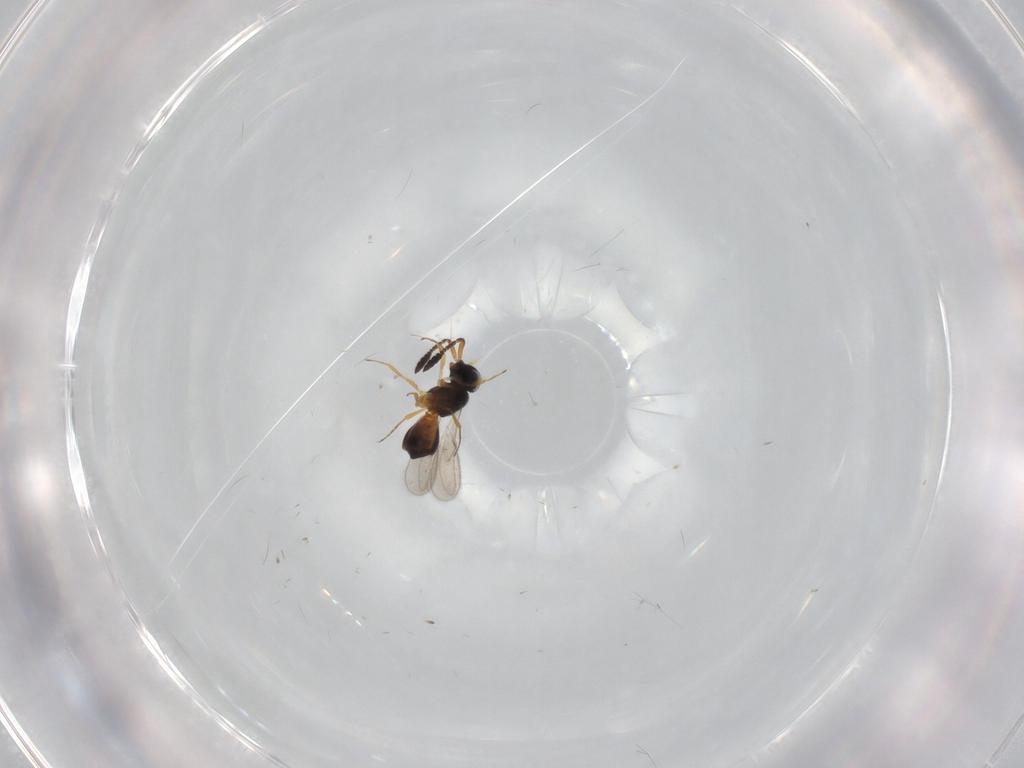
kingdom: Animalia
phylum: Arthropoda
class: Insecta
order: Hymenoptera
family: Scelionidae
